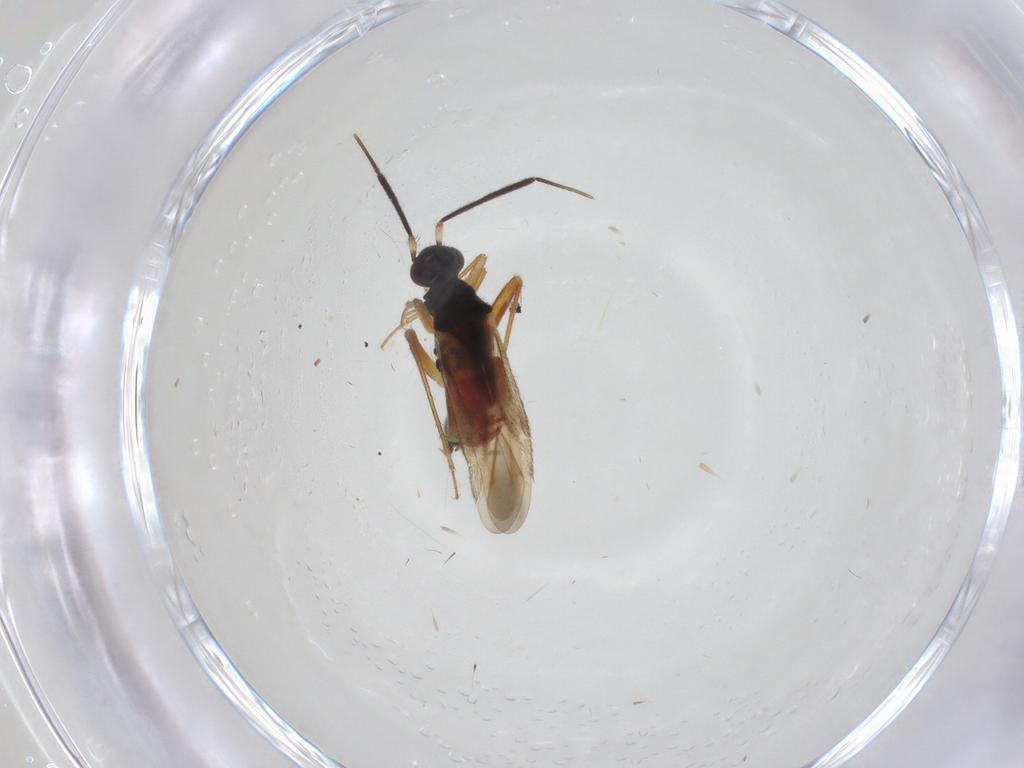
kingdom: Animalia
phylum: Arthropoda
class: Insecta
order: Hemiptera
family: Miridae
